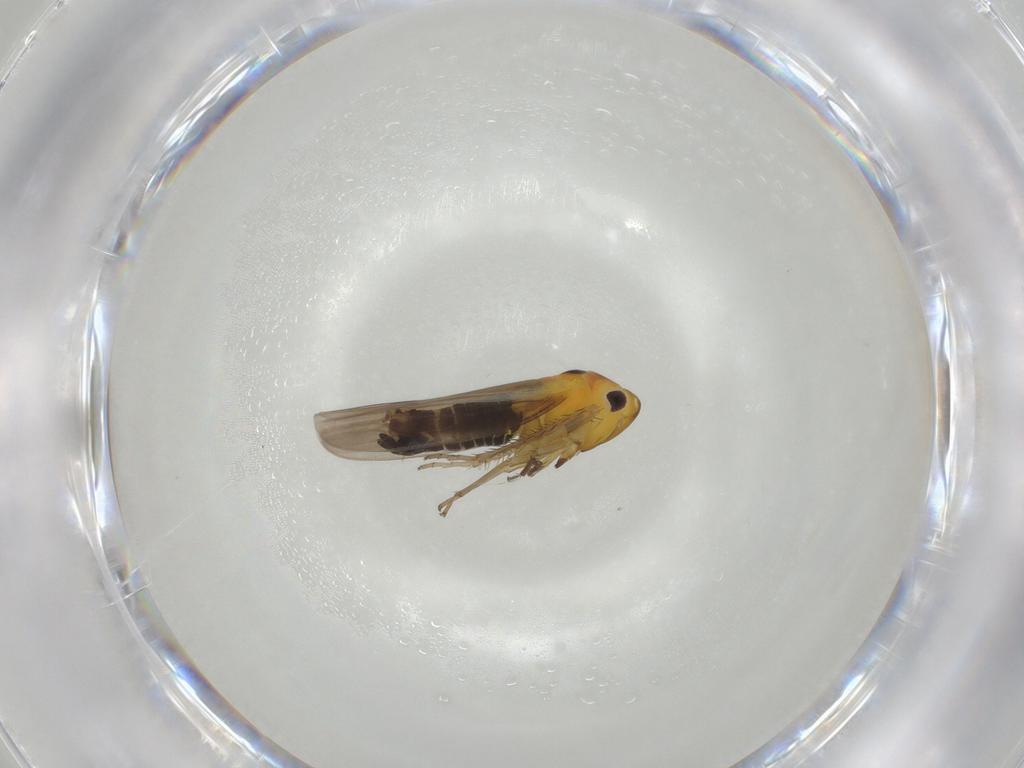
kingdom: Animalia
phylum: Arthropoda
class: Insecta
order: Hemiptera
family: Cicadellidae
